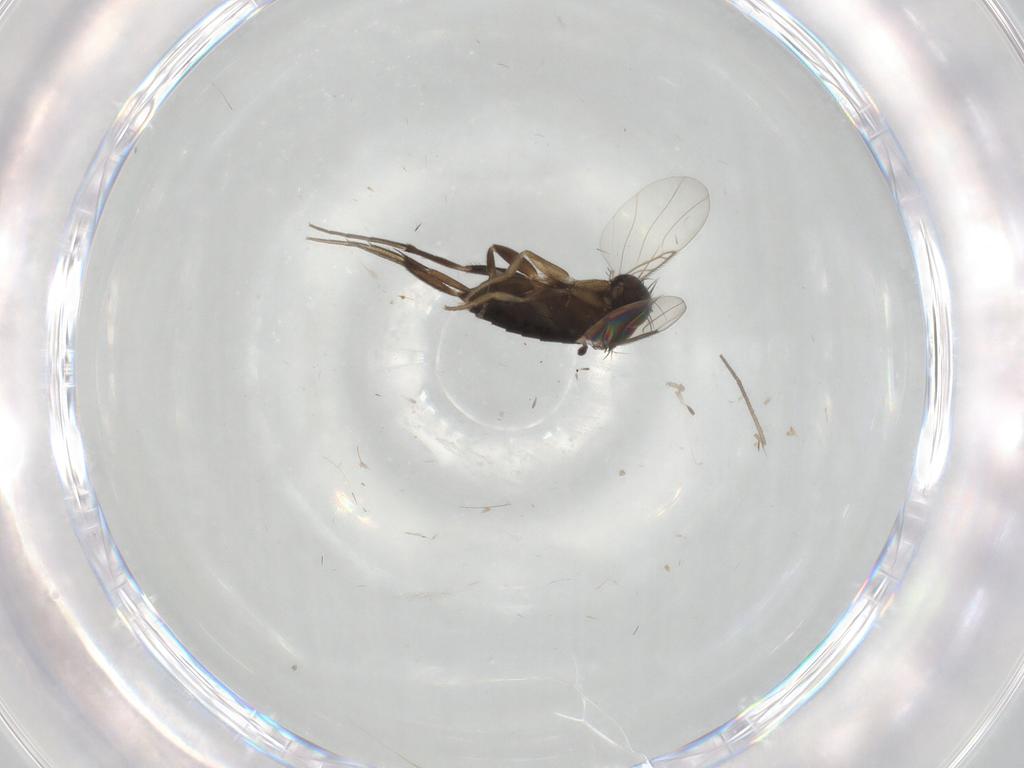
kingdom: Animalia
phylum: Arthropoda
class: Insecta
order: Diptera
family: Phoridae
